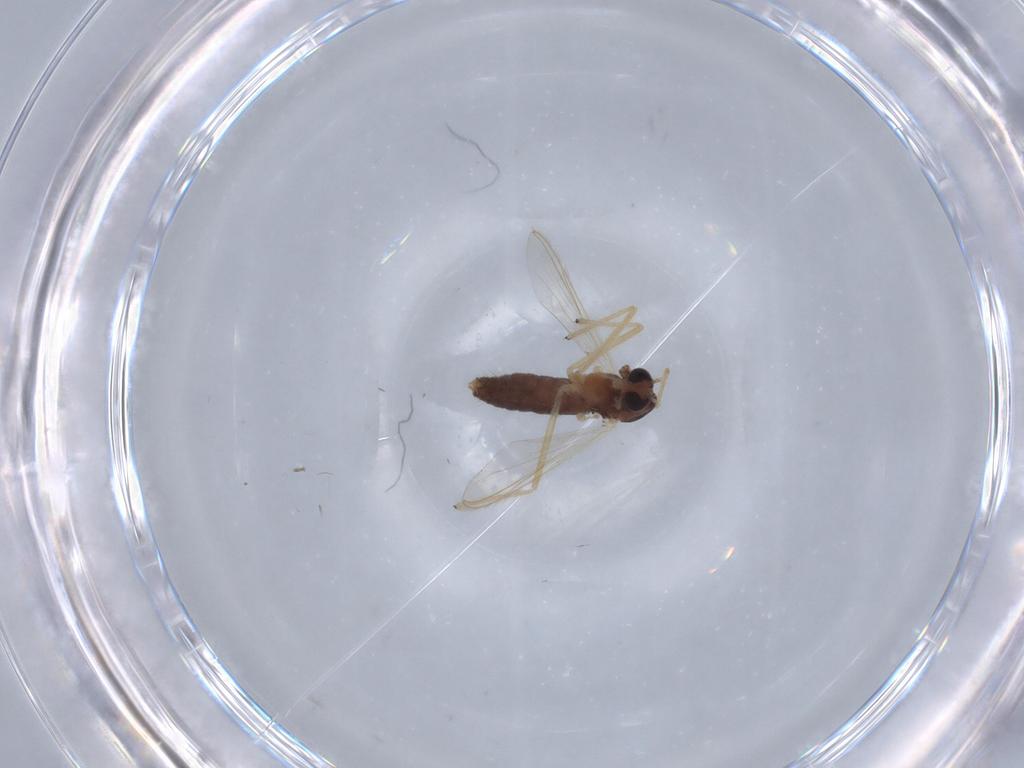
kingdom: Animalia
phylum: Arthropoda
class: Insecta
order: Diptera
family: Chironomidae
